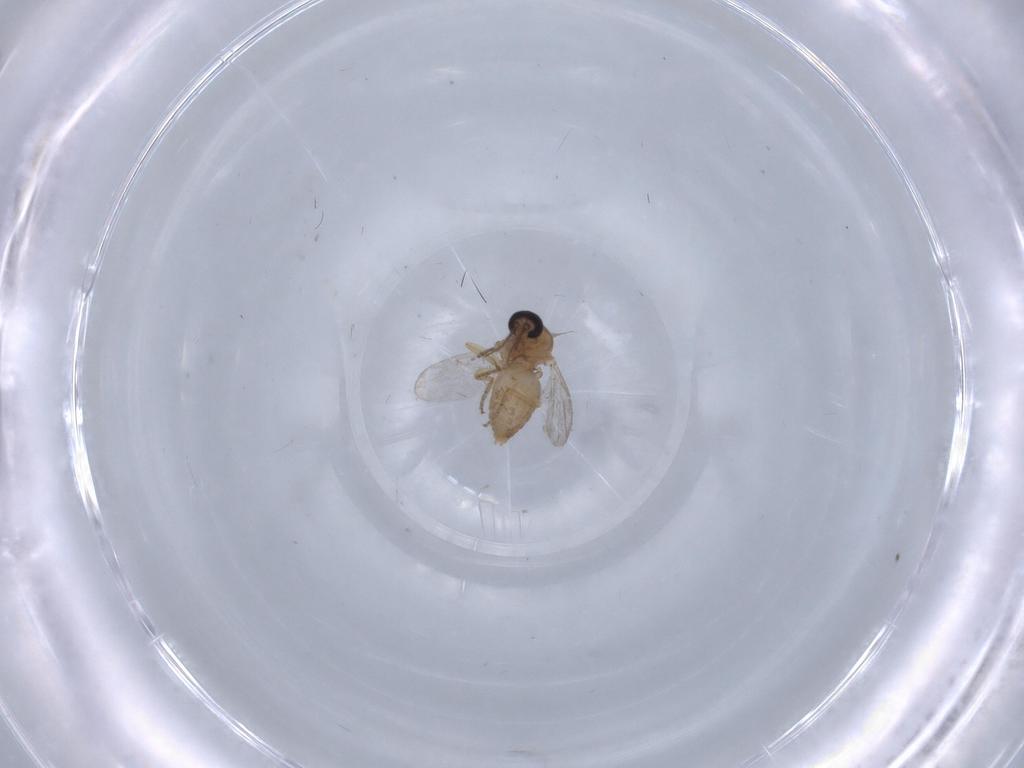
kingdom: Animalia
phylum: Arthropoda
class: Insecta
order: Diptera
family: Chironomidae
